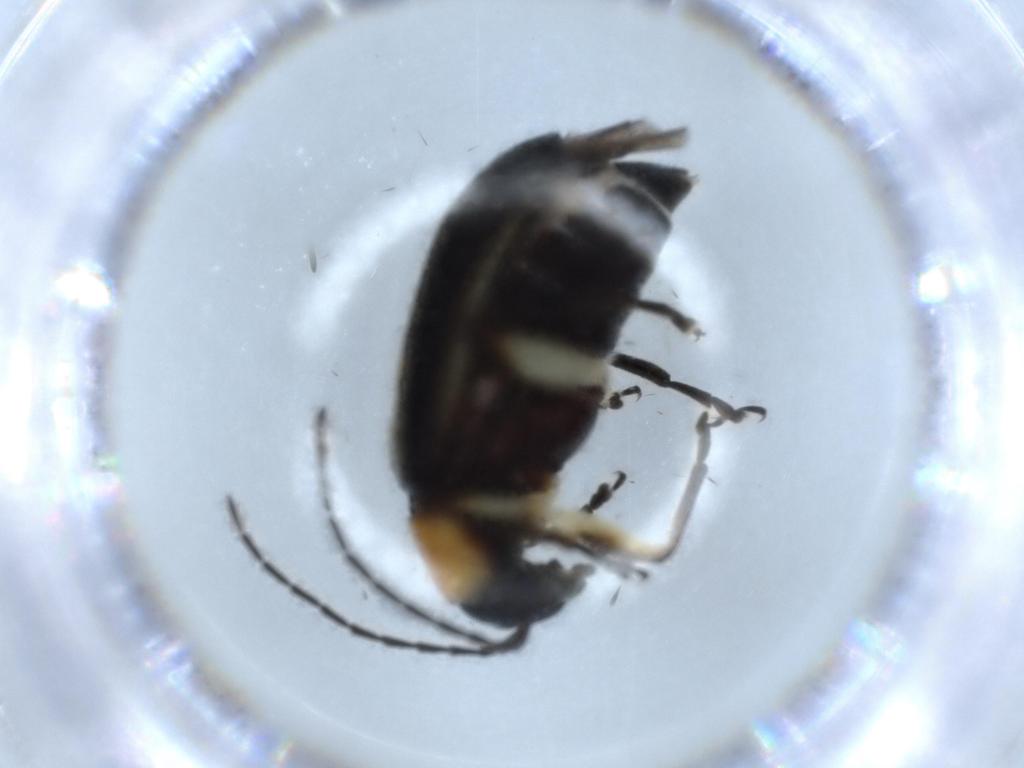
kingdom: Animalia
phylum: Arthropoda
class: Insecta
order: Coleoptera
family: Chrysomelidae
